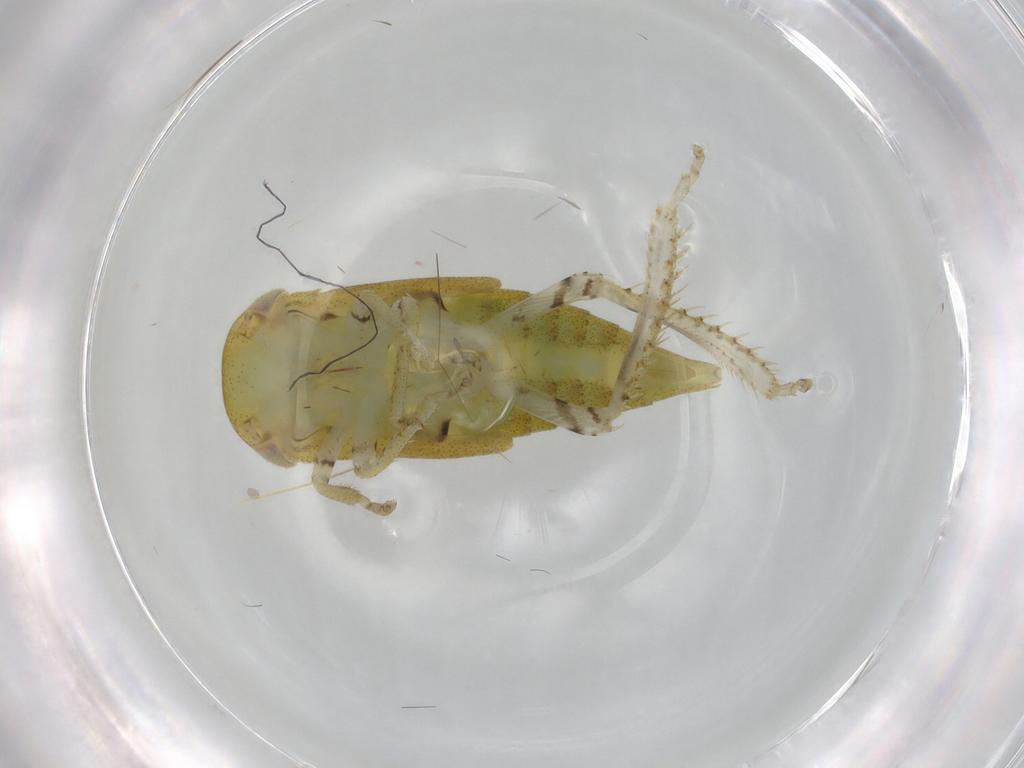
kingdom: Animalia
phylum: Arthropoda
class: Insecta
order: Hemiptera
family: Cicadellidae
